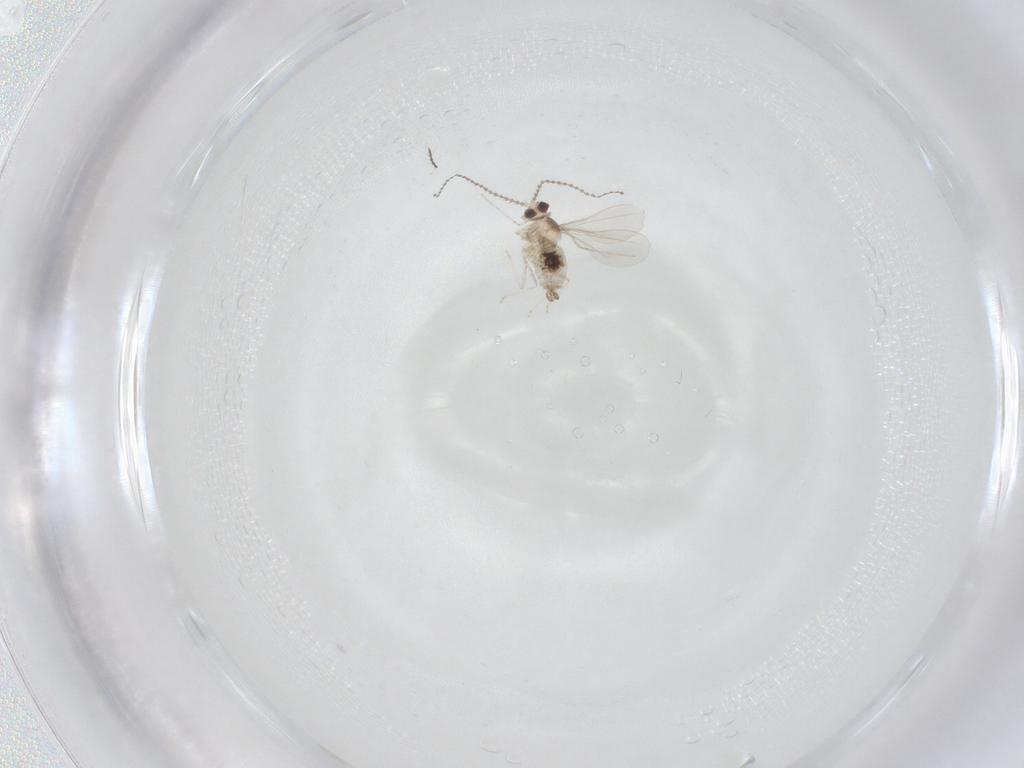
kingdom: Animalia
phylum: Arthropoda
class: Insecta
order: Diptera
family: Cecidomyiidae
